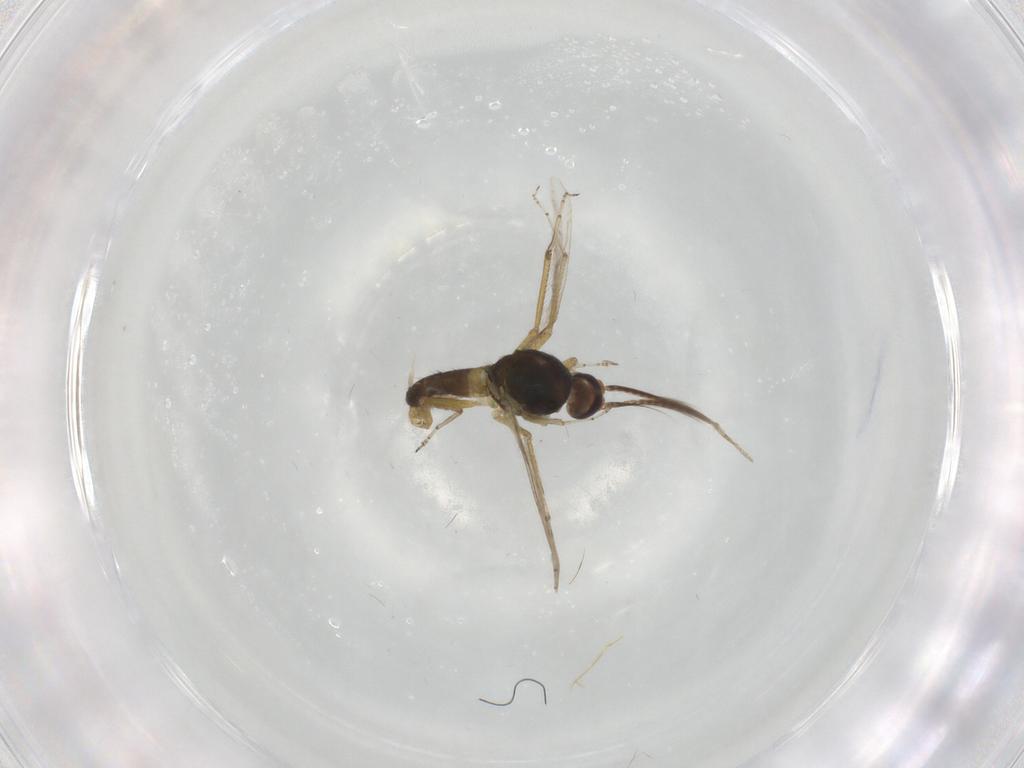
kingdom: Animalia
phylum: Arthropoda
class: Insecta
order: Diptera
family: Ceratopogonidae
